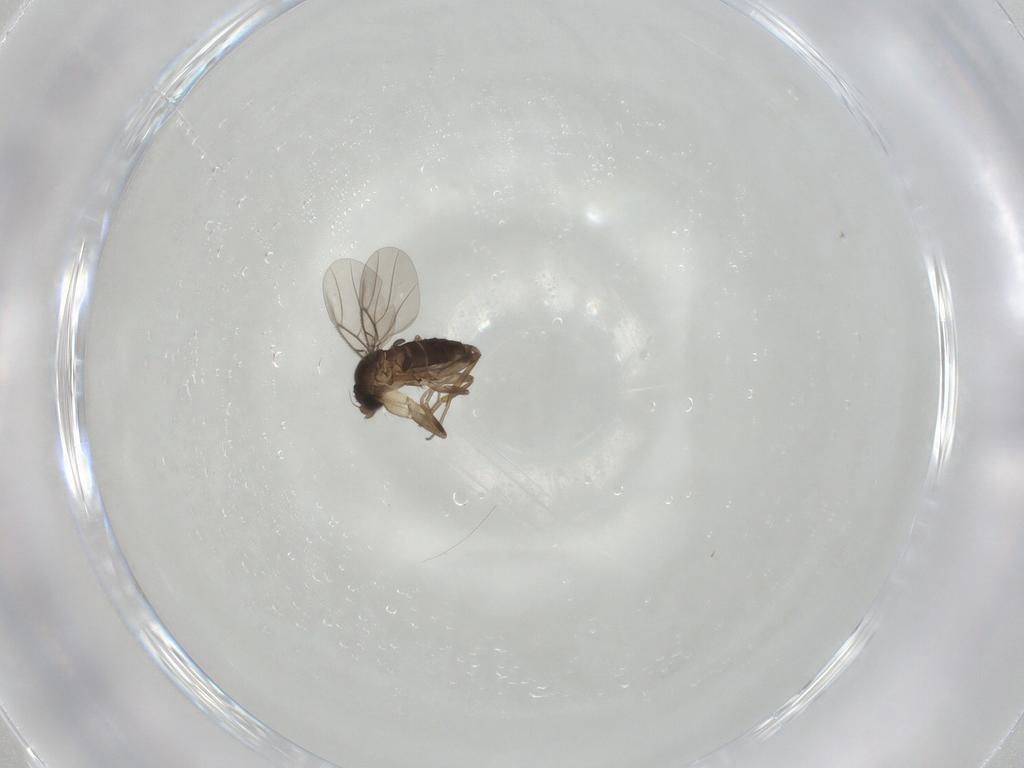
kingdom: Animalia
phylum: Arthropoda
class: Insecta
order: Diptera
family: Phoridae
